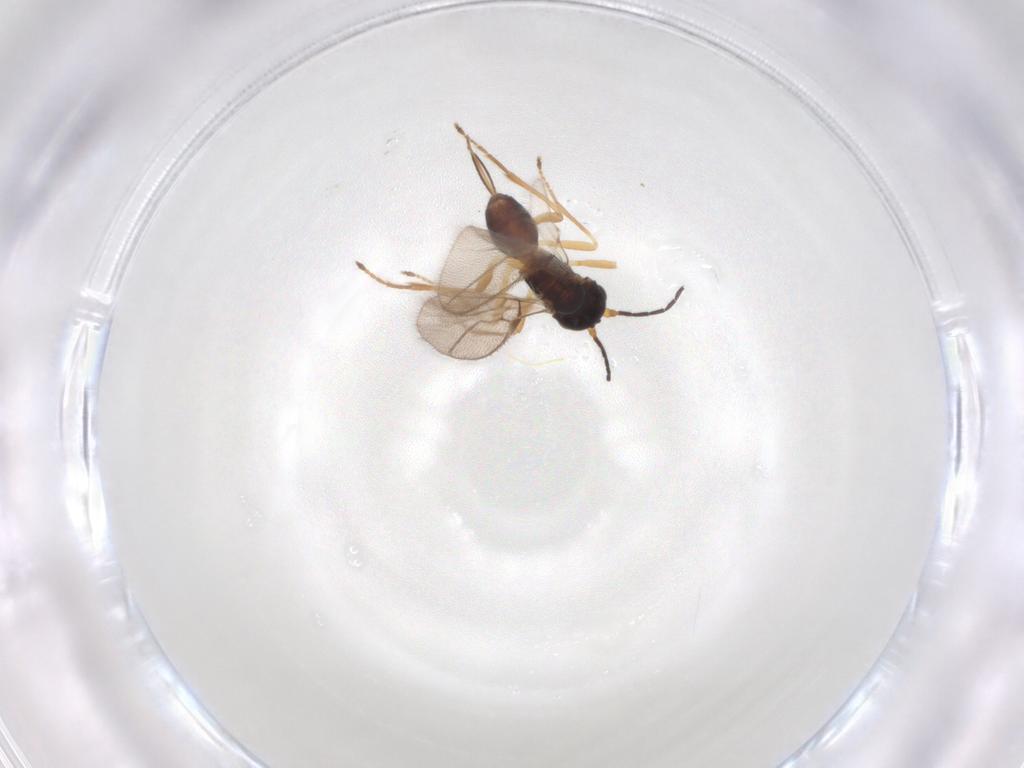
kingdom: Animalia
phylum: Arthropoda
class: Insecta
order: Hymenoptera
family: Braconidae
